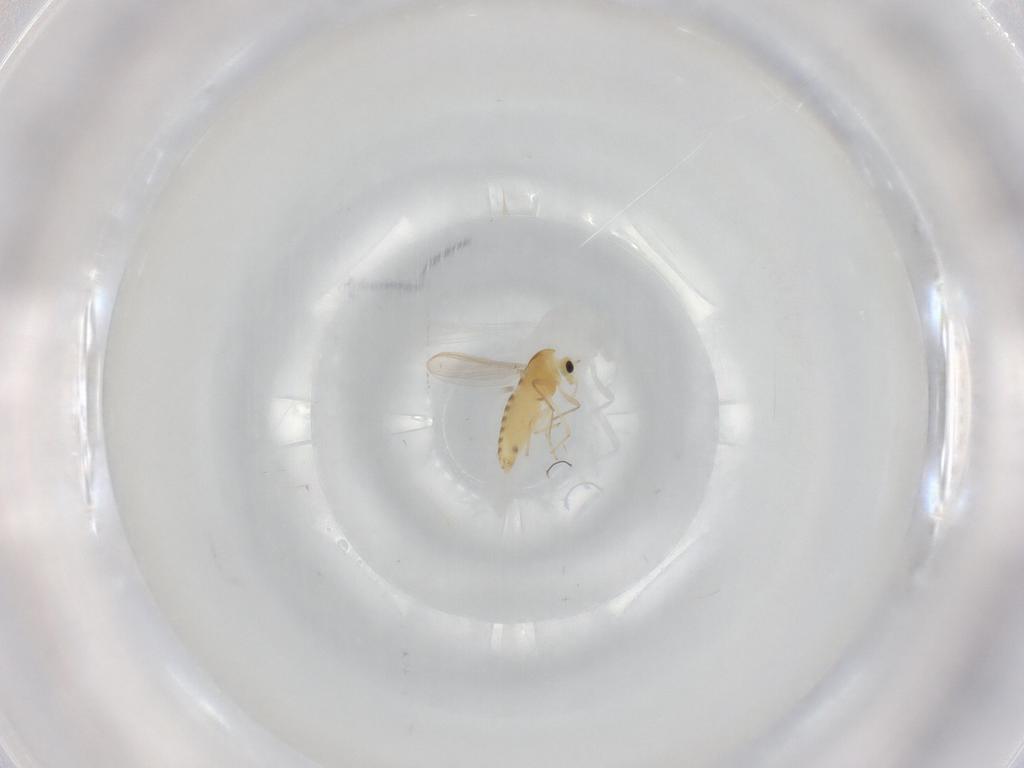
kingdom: Animalia
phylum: Arthropoda
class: Insecta
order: Diptera
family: Chironomidae
